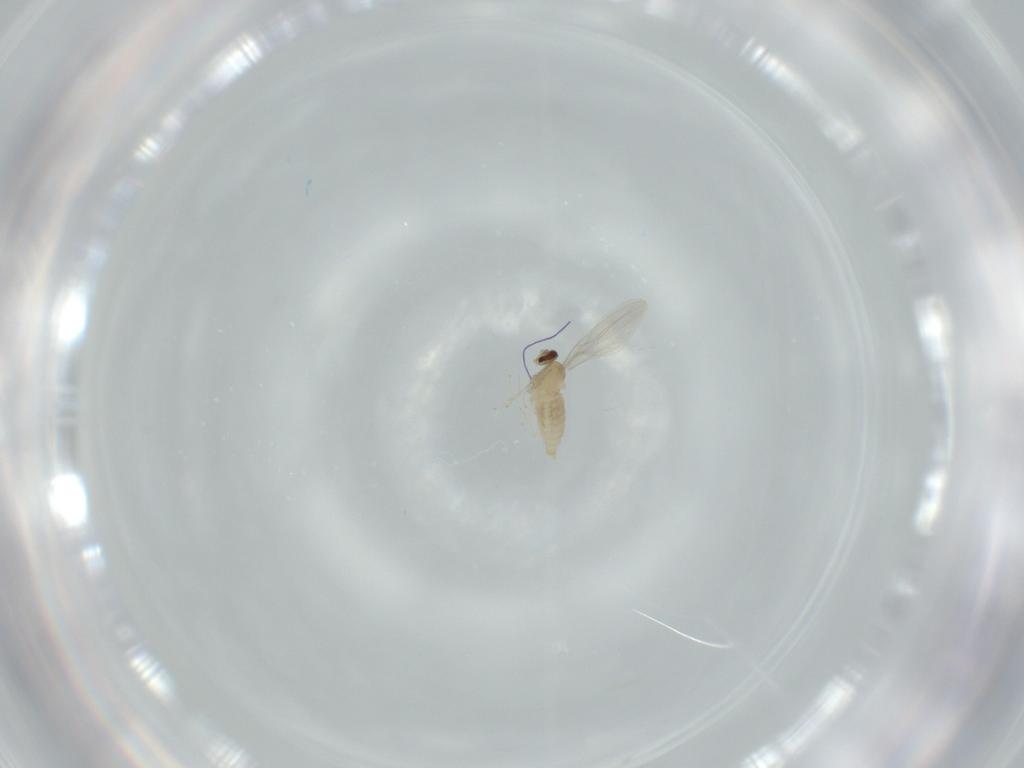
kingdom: Animalia
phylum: Arthropoda
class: Insecta
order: Diptera
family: Cecidomyiidae
